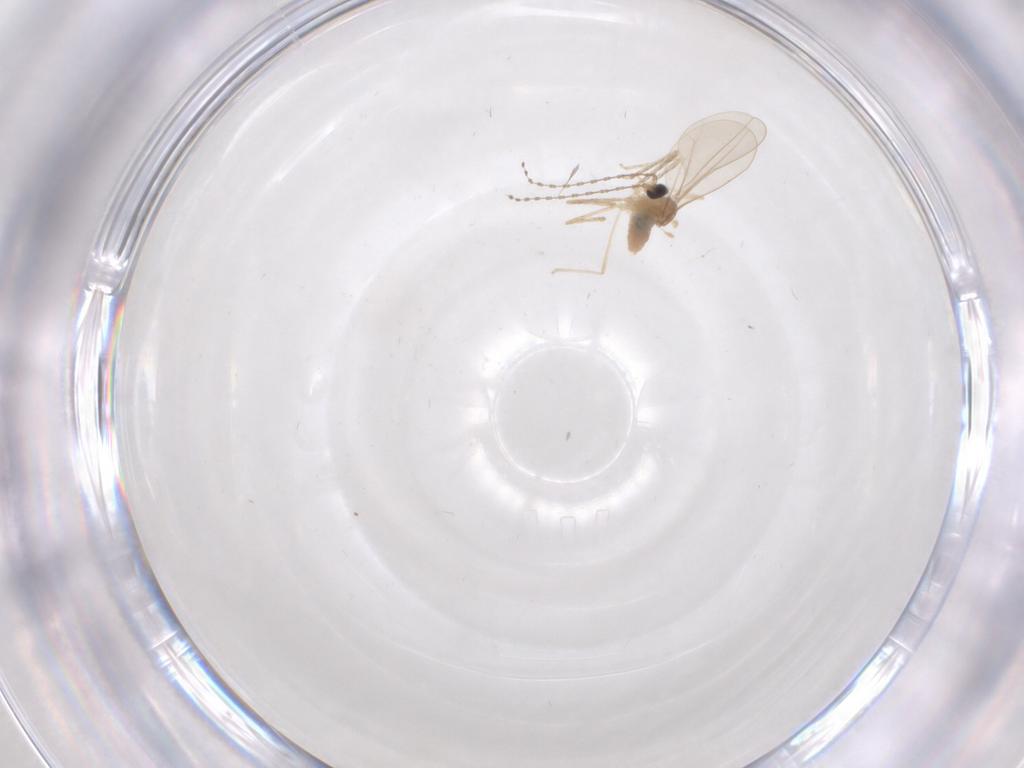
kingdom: Animalia
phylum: Arthropoda
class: Insecta
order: Diptera
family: Cecidomyiidae
